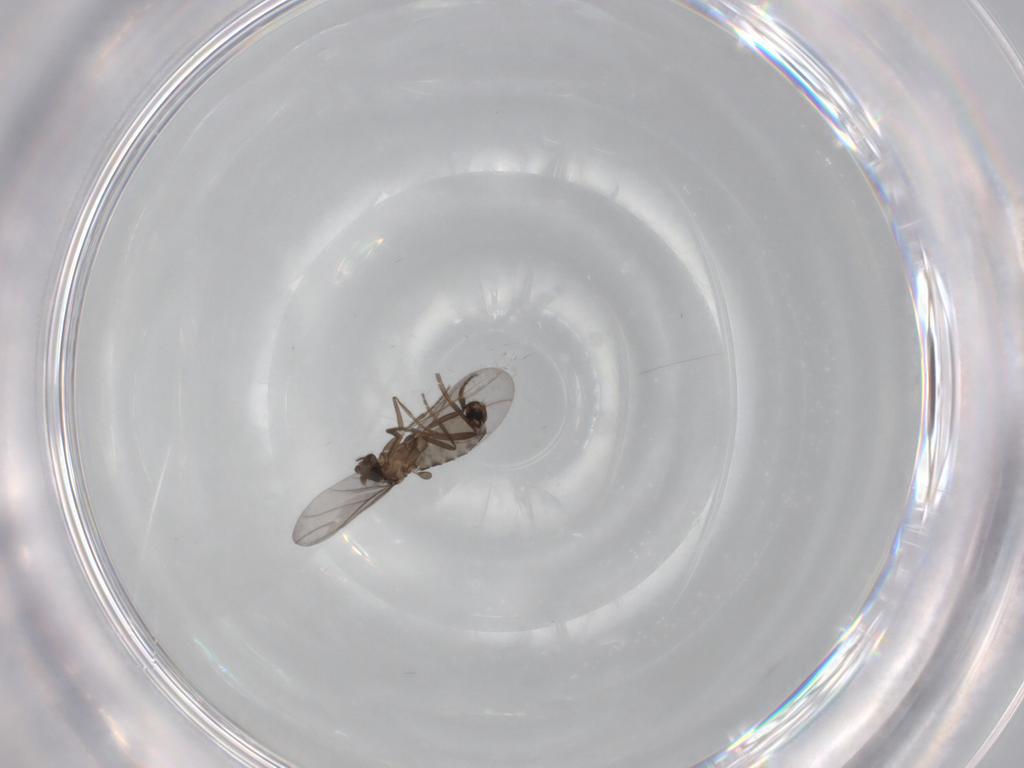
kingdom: Animalia
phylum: Arthropoda
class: Insecta
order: Diptera
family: Phoridae
